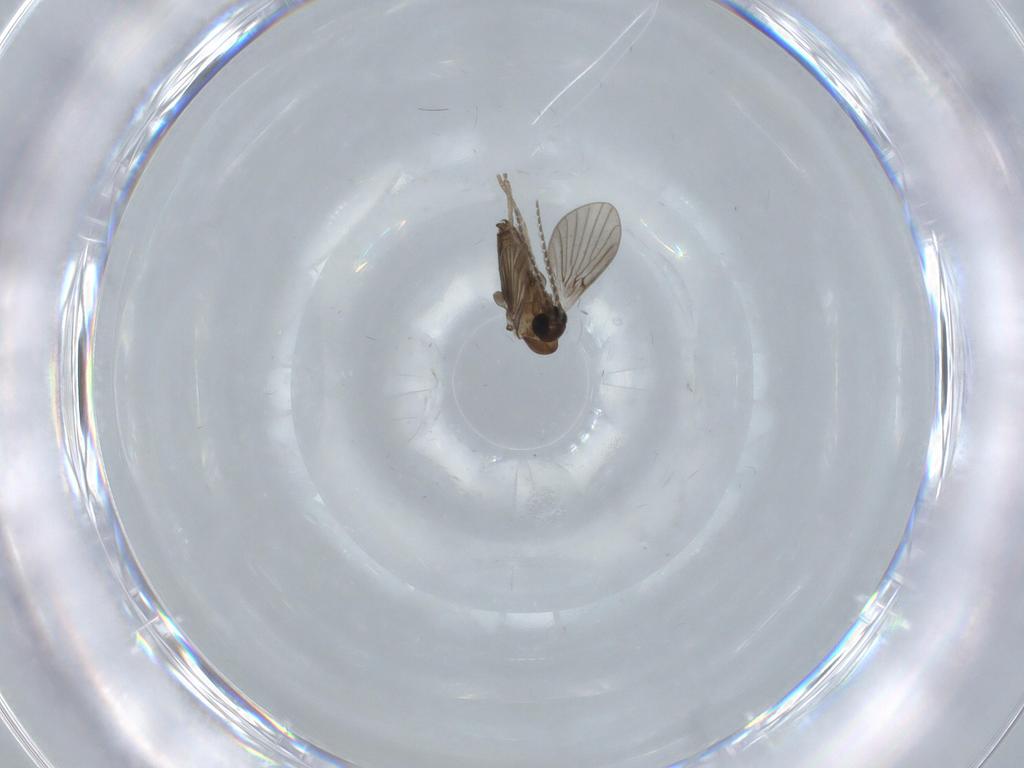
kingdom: Animalia
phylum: Arthropoda
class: Insecta
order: Diptera
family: Psychodidae
